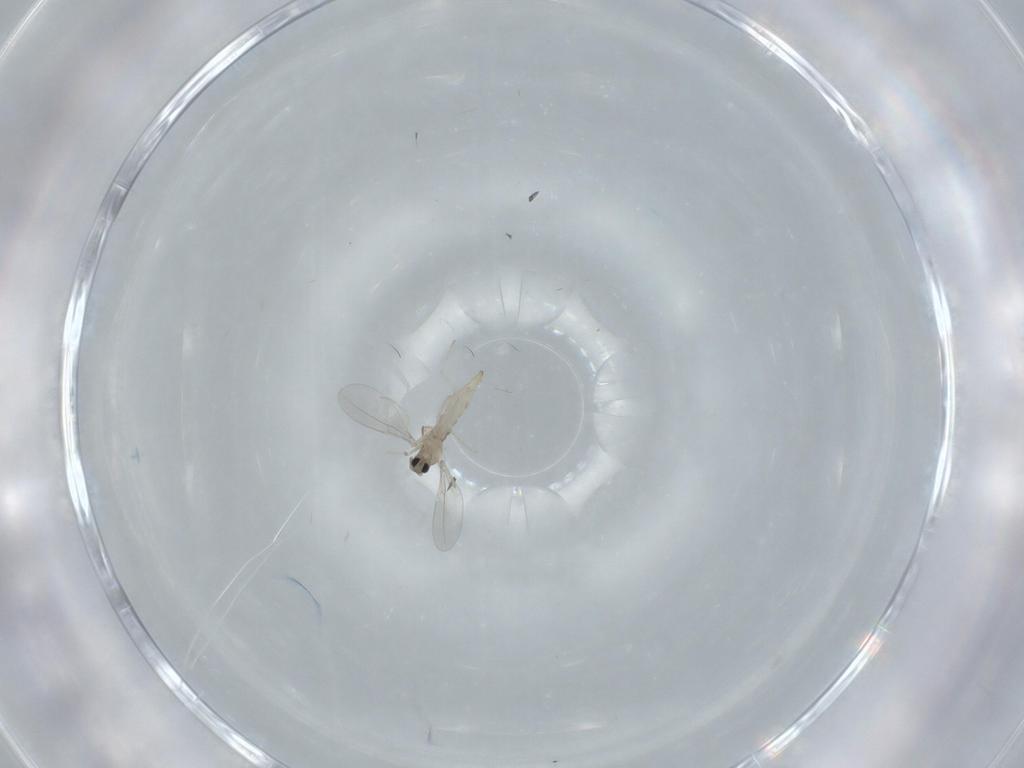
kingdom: Animalia
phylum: Arthropoda
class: Insecta
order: Diptera
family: Cecidomyiidae
